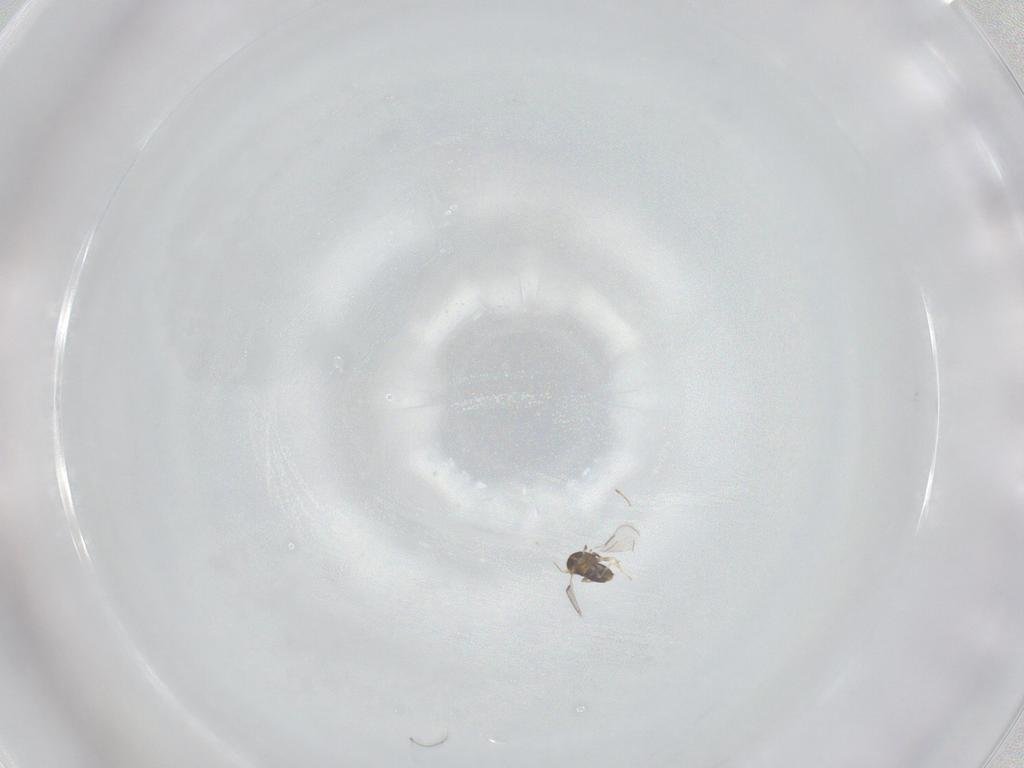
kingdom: Animalia
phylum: Arthropoda
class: Insecta
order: Hymenoptera
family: Aphelinidae
